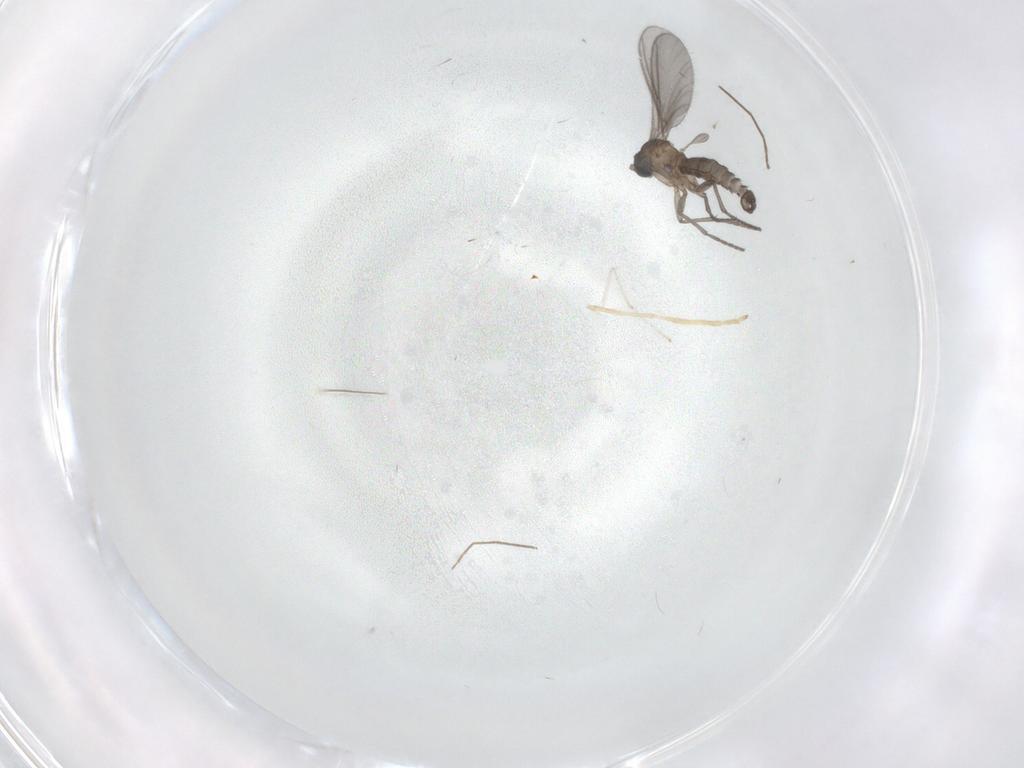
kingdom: Animalia
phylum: Arthropoda
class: Insecta
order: Diptera
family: Sciaridae
